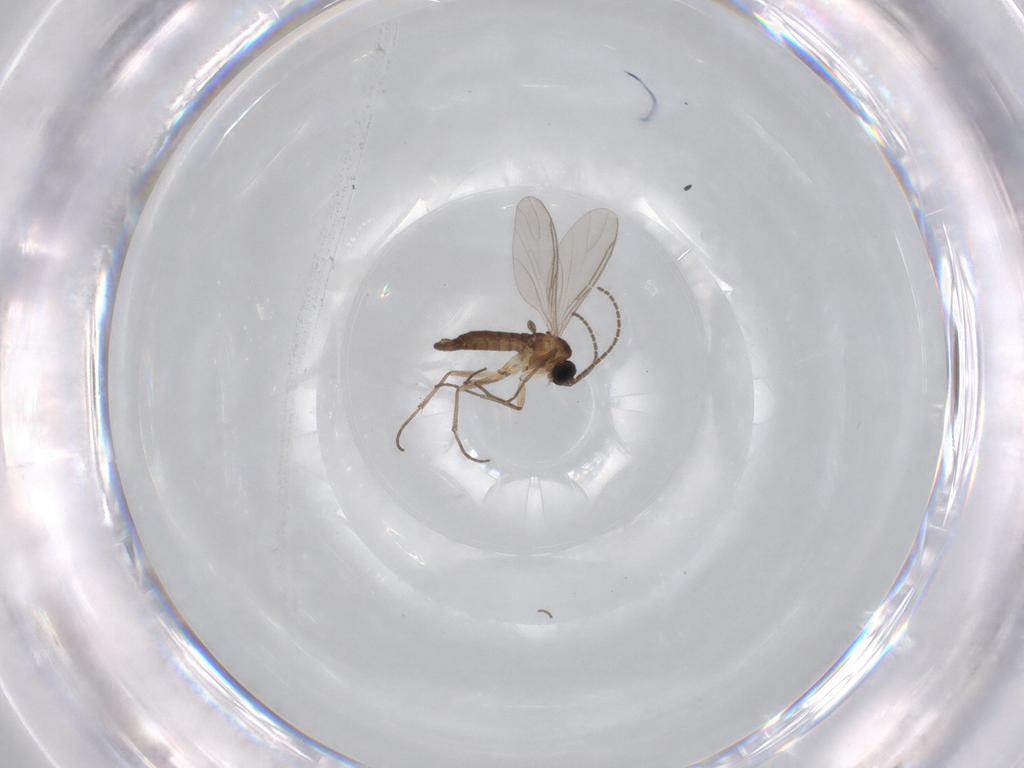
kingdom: Animalia
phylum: Arthropoda
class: Insecta
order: Diptera
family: Sciaridae
